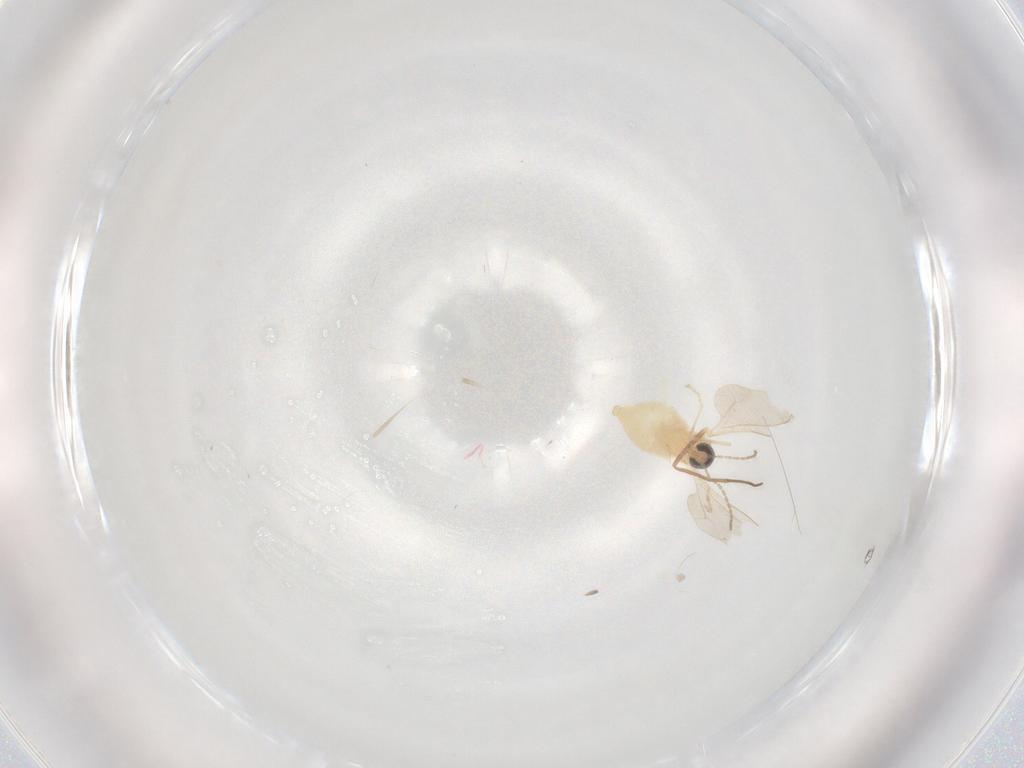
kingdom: Animalia
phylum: Arthropoda
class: Insecta
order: Diptera
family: Cecidomyiidae
